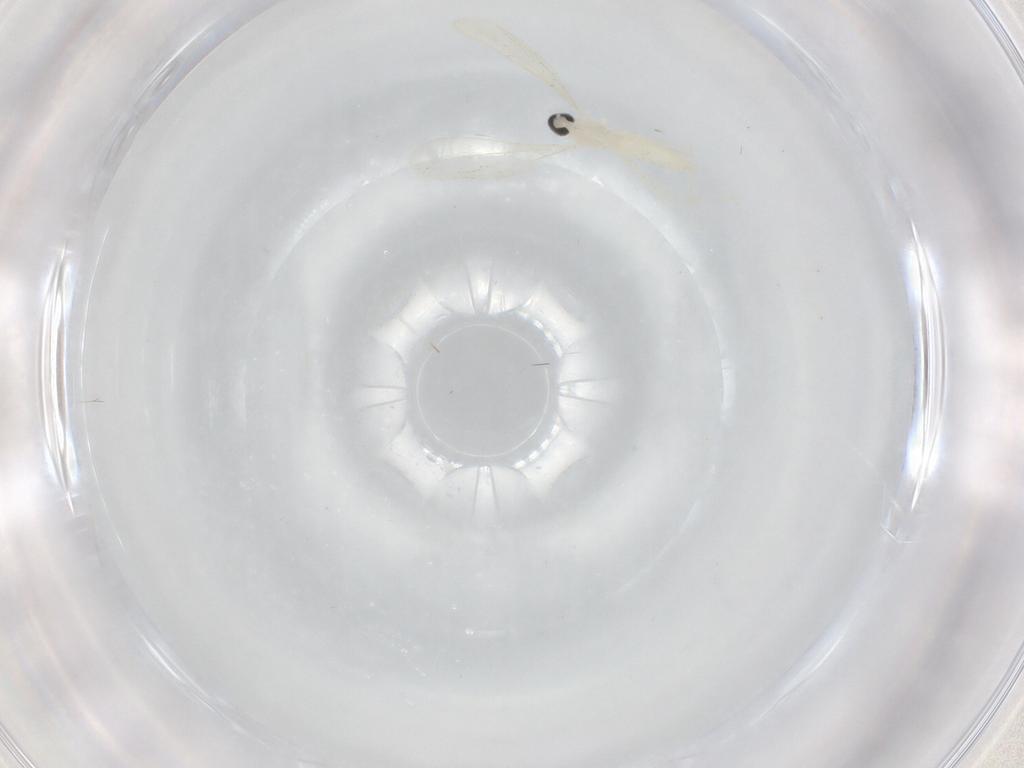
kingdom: Animalia
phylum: Arthropoda
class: Insecta
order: Diptera
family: Cecidomyiidae
